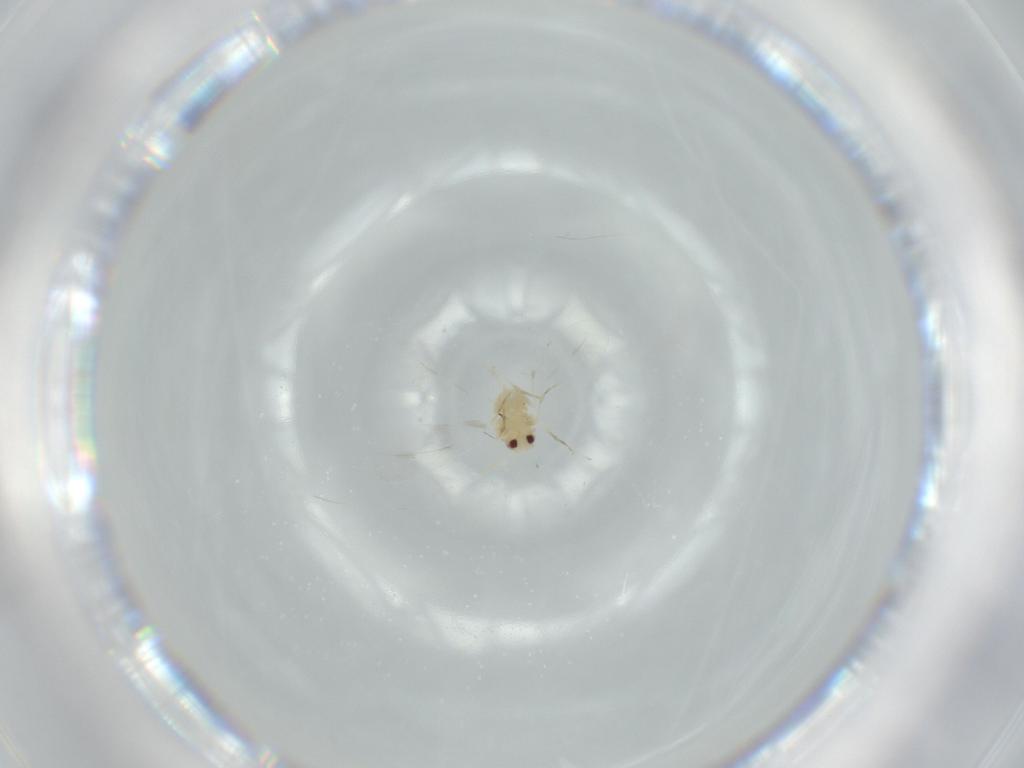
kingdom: Animalia
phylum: Arthropoda
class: Insecta
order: Hemiptera
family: Aleyrodidae
